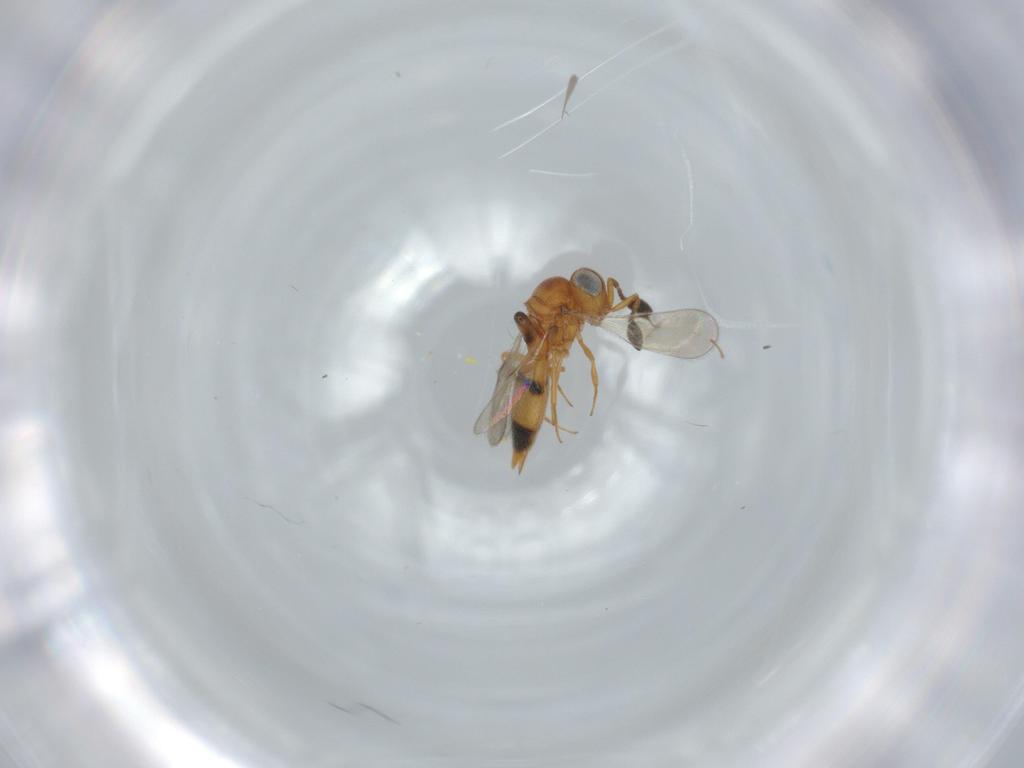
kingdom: Animalia
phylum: Arthropoda
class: Insecta
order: Hymenoptera
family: Scelionidae
